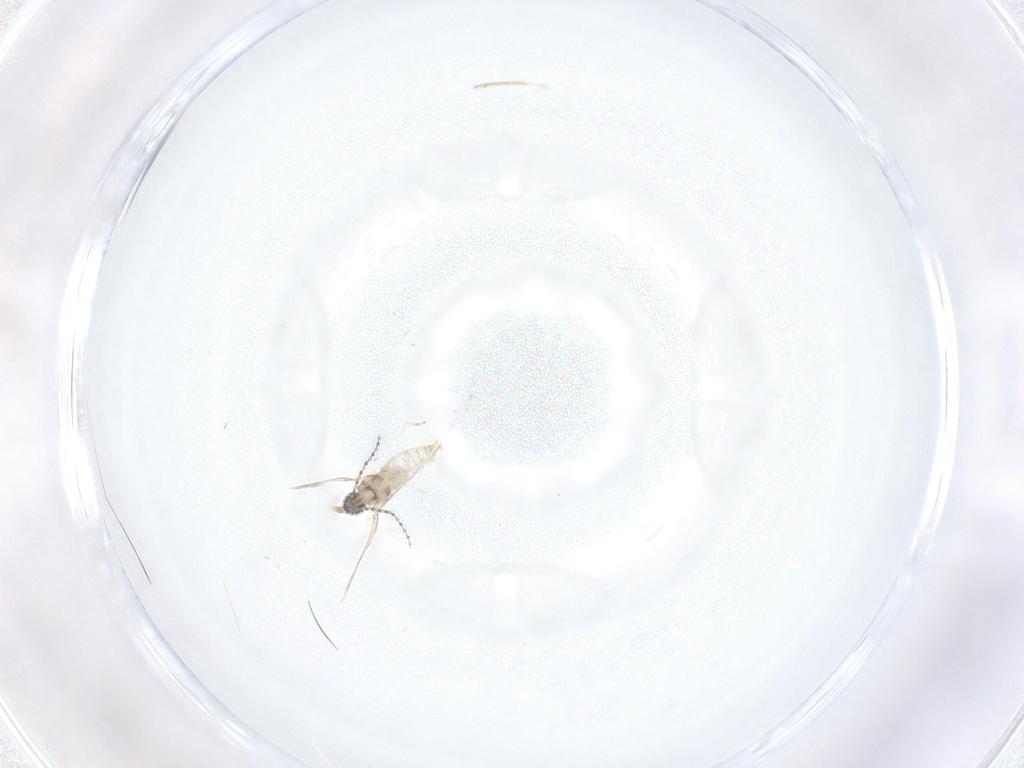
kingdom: Animalia
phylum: Arthropoda
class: Insecta
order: Diptera
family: Cecidomyiidae
